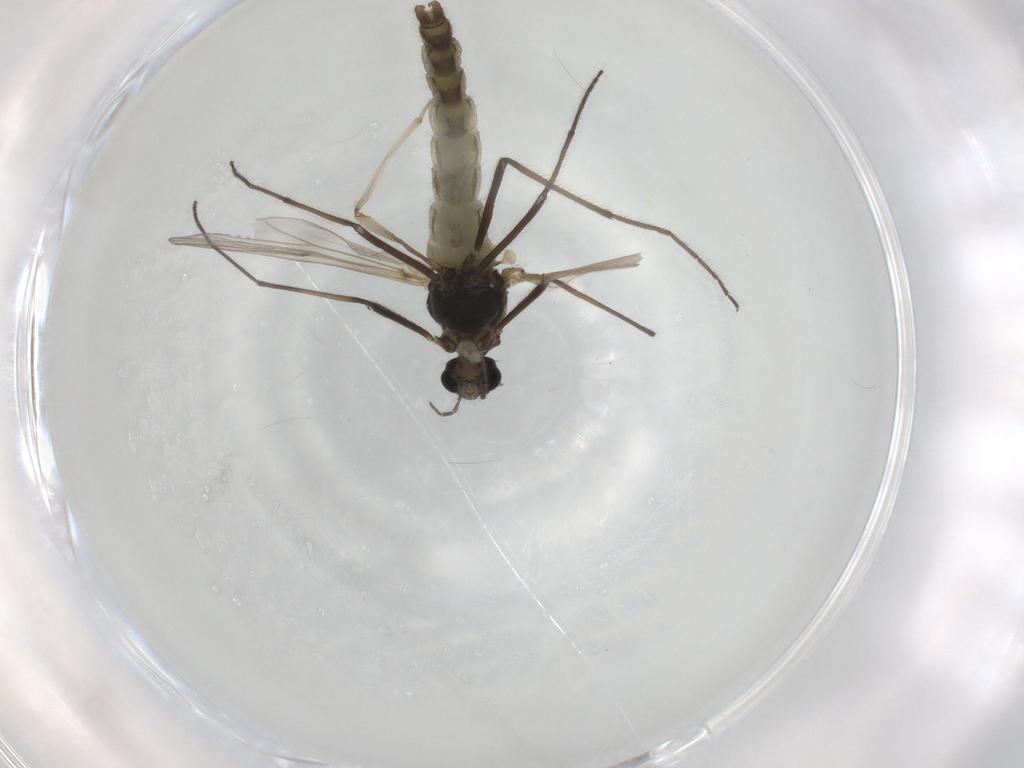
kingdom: Animalia
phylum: Arthropoda
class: Insecta
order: Diptera
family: Chironomidae
